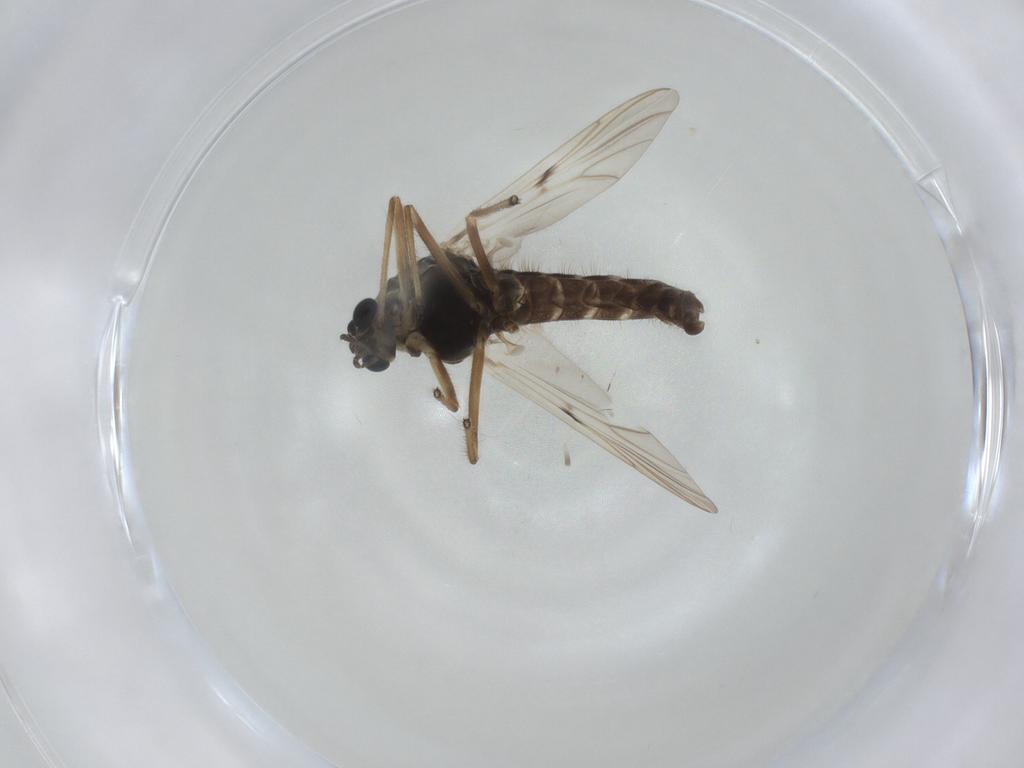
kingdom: Animalia
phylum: Arthropoda
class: Insecta
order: Diptera
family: Chironomidae
